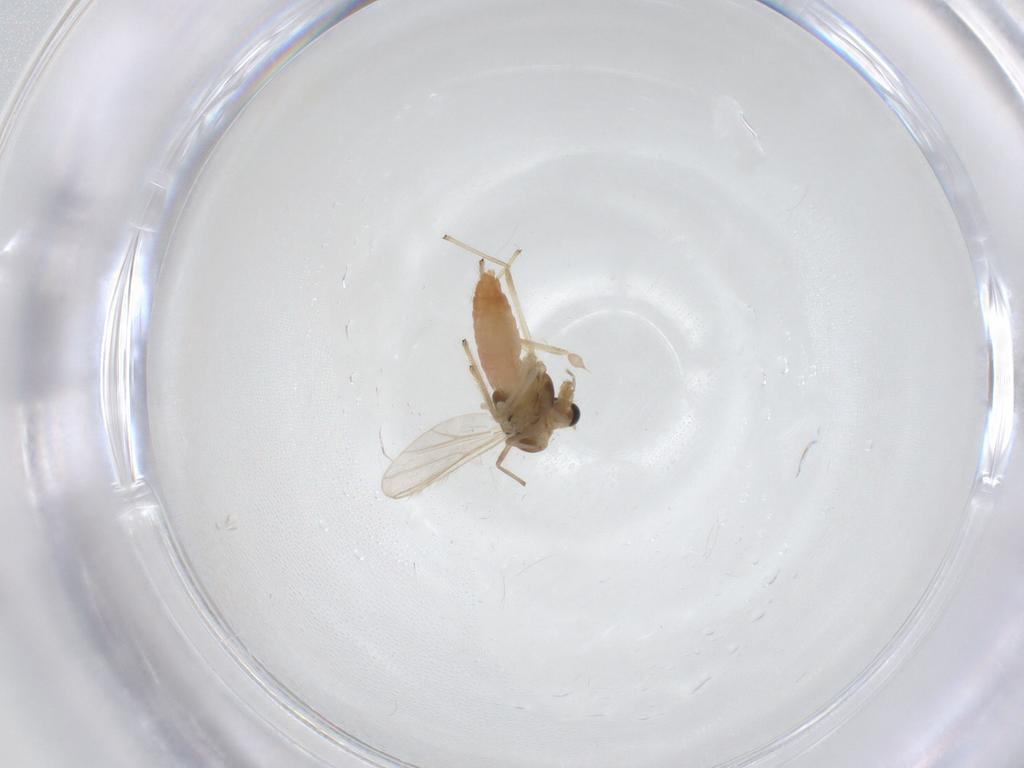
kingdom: Animalia
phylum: Arthropoda
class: Insecta
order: Diptera
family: Chironomidae
